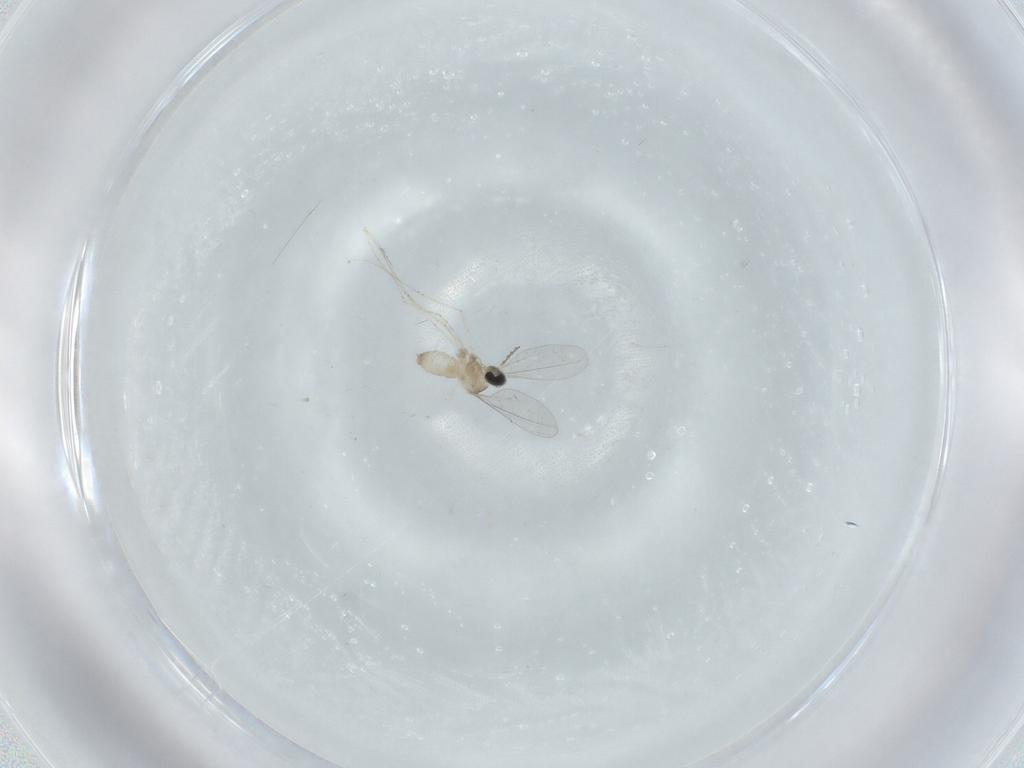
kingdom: Animalia
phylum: Arthropoda
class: Insecta
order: Diptera
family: Cecidomyiidae
